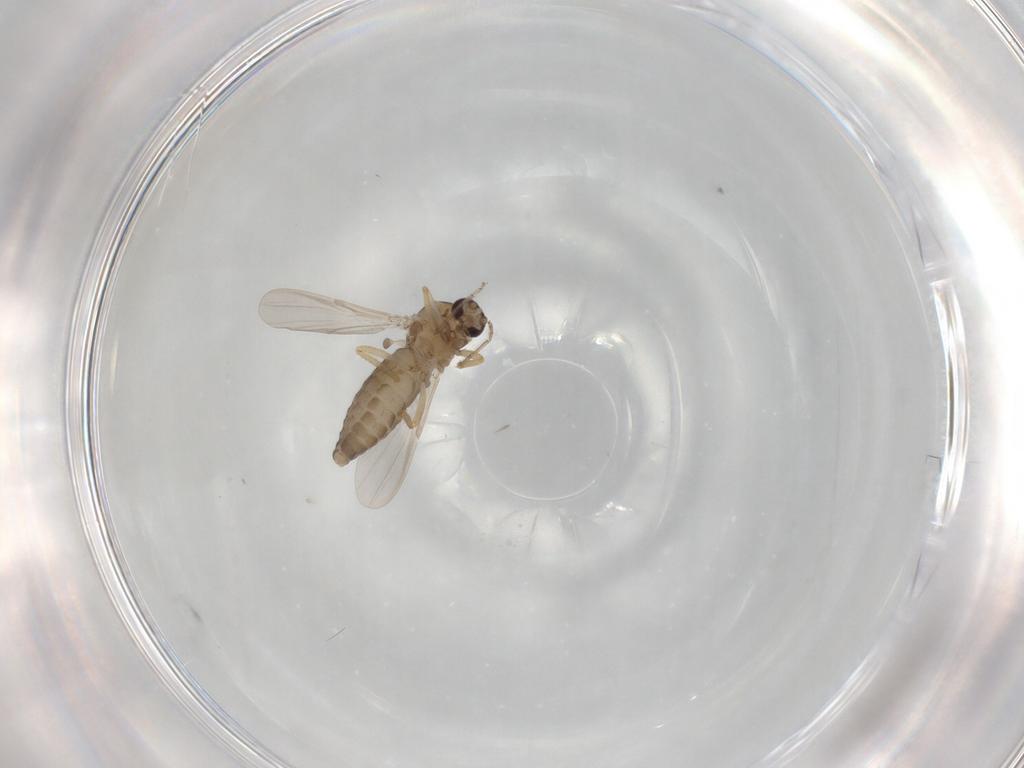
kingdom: Animalia
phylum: Arthropoda
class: Insecta
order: Diptera
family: Ceratopogonidae
